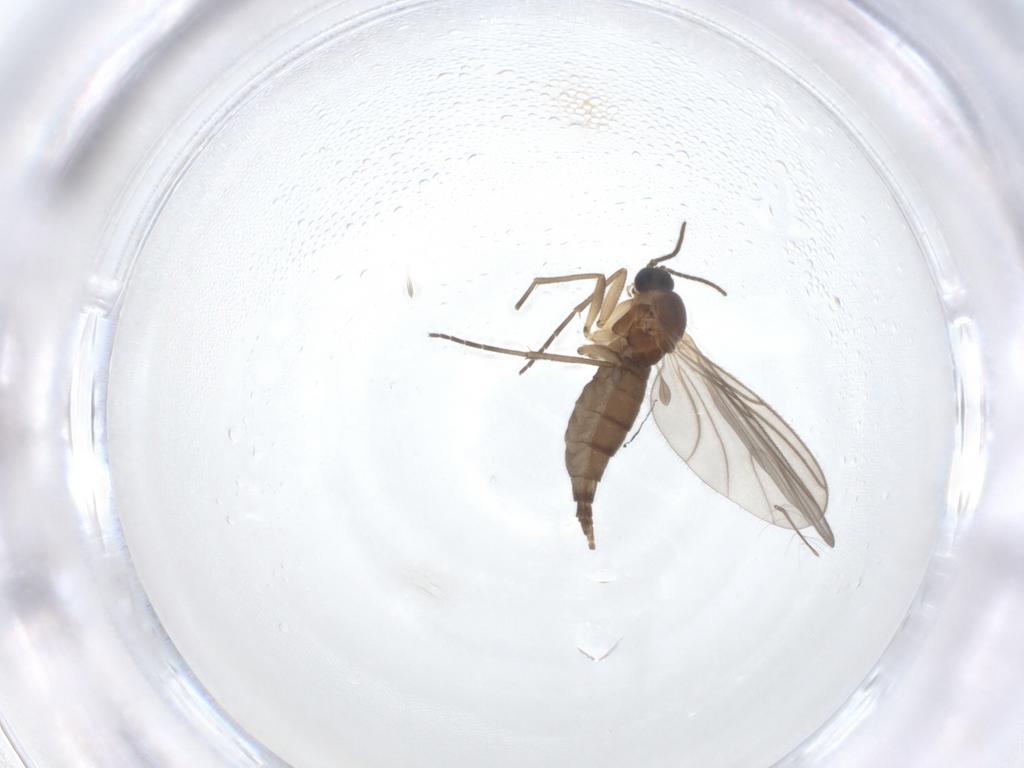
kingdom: Animalia
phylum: Arthropoda
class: Insecta
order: Diptera
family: Sciaridae
